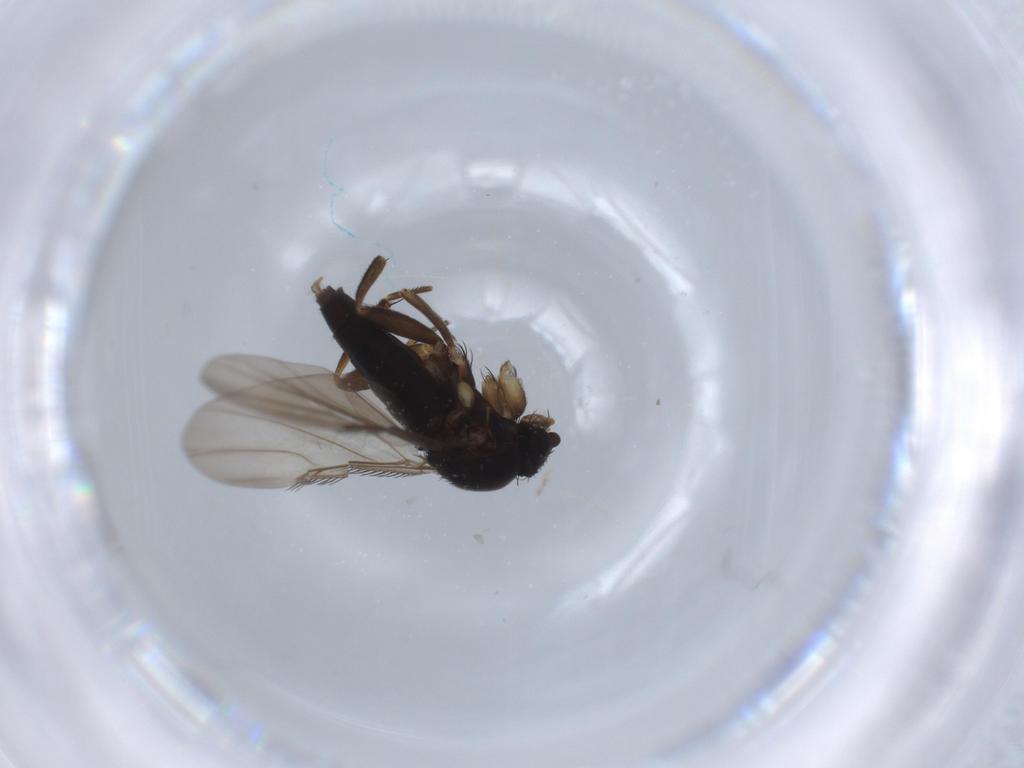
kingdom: Animalia
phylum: Arthropoda
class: Insecta
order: Diptera
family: Chironomidae
